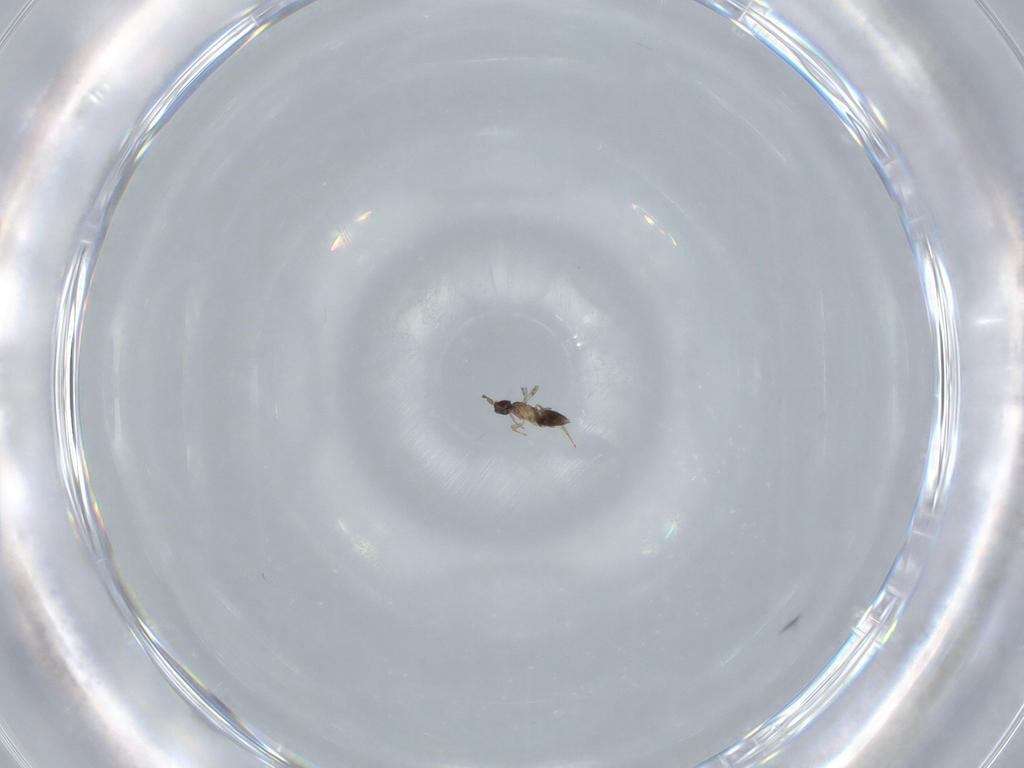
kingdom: Animalia
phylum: Arthropoda
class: Insecta
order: Hymenoptera
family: Mymaridae
